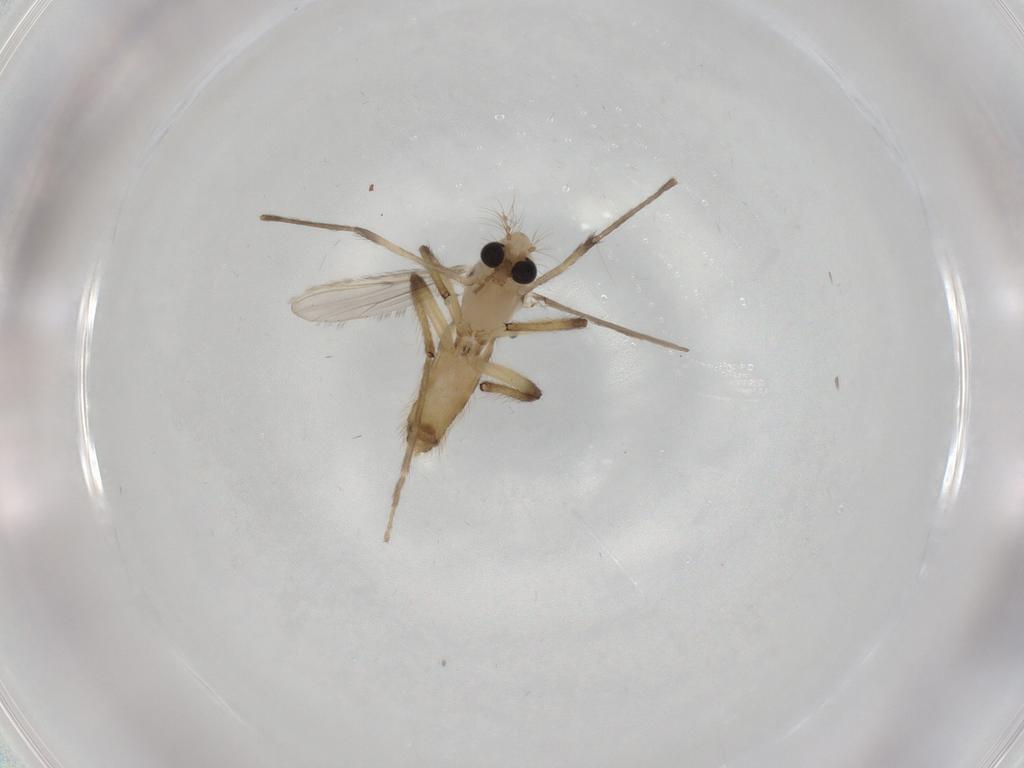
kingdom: Animalia
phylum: Arthropoda
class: Insecta
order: Diptera
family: Chironomidae
